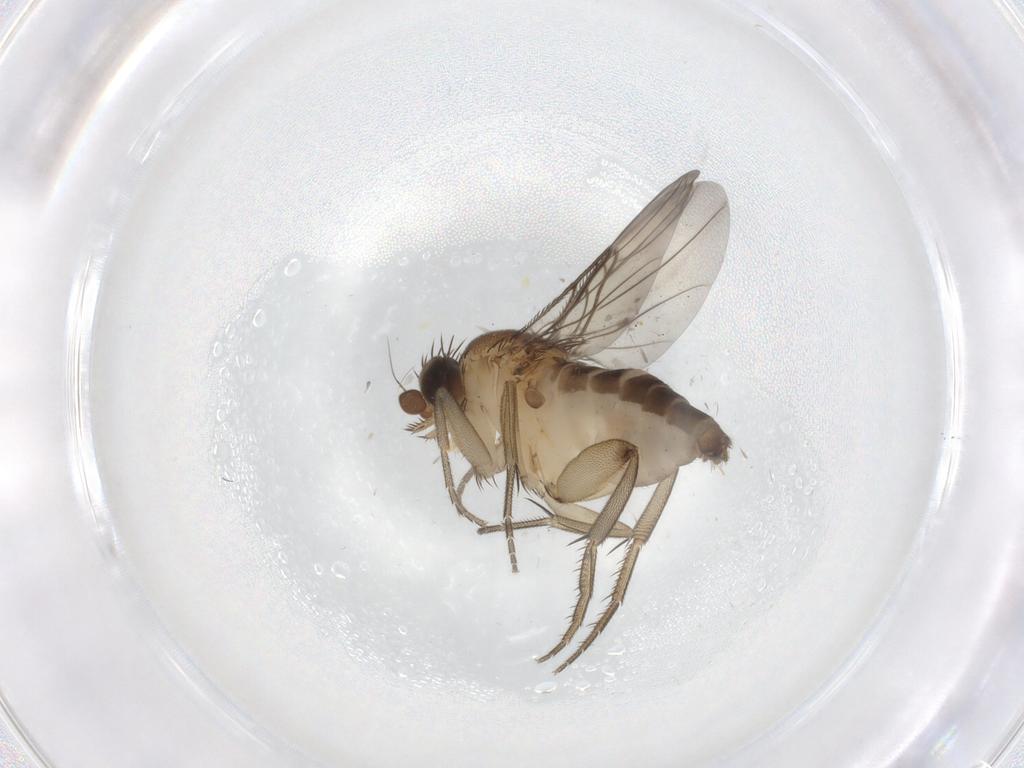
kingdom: Animalia
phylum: Arthropoda
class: Insecta
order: Diptera
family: Phoridae
